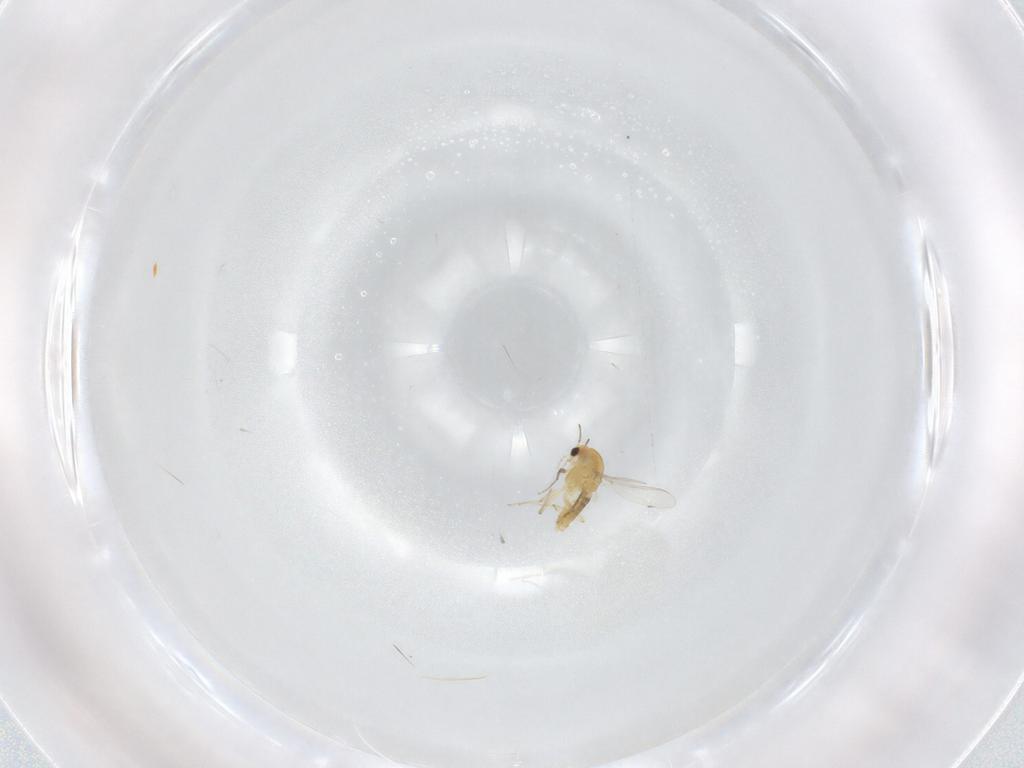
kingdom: Animalia
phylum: Arthropoda
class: Insecta
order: Diptera
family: Chironomidae
